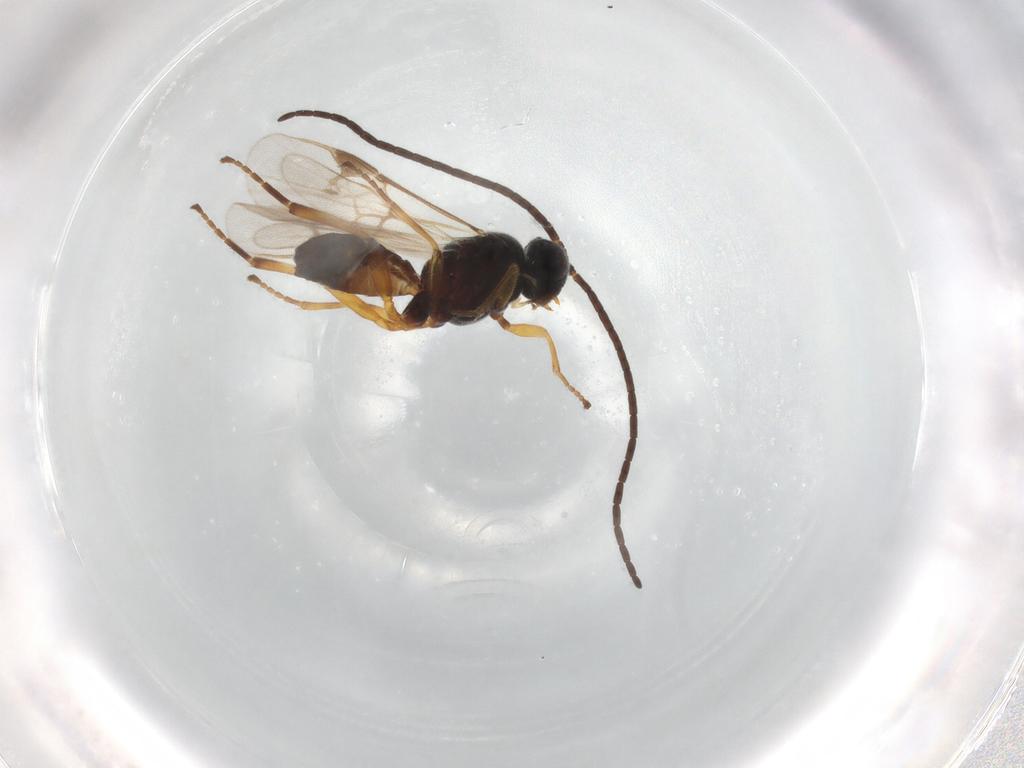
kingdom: Animalia
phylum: Arthropoda
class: Insecta
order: Hymenoptera
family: Braconidae
